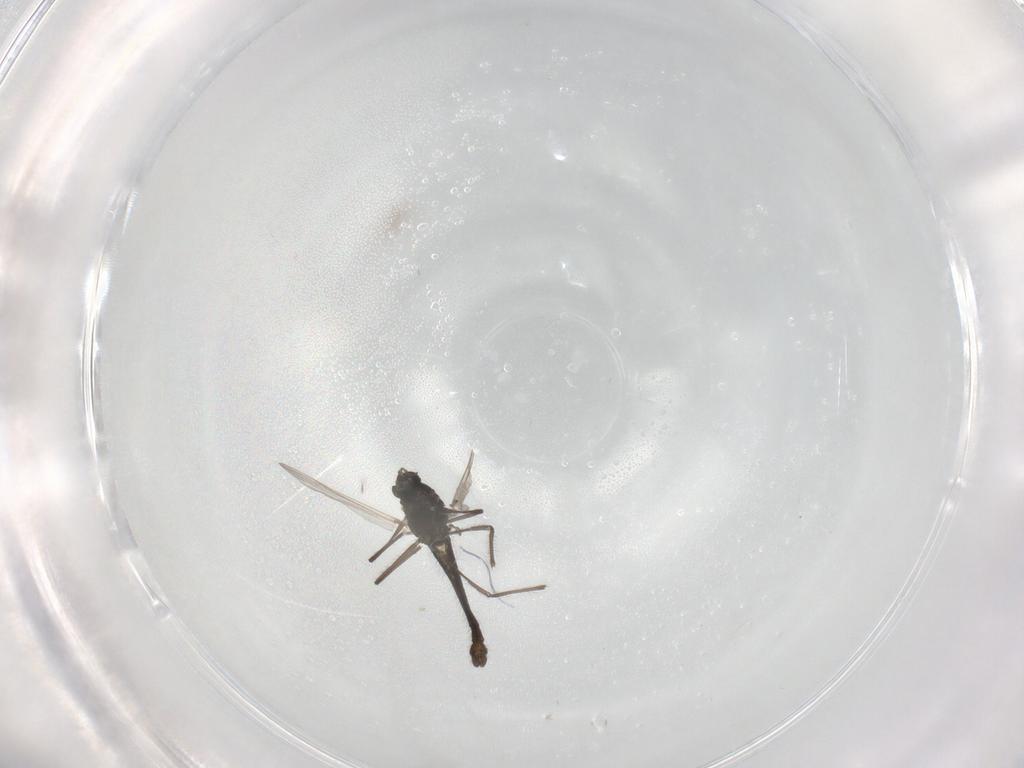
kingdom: Animalia
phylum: Arthropoda
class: Insecta
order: Diptera
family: Chironomidae
